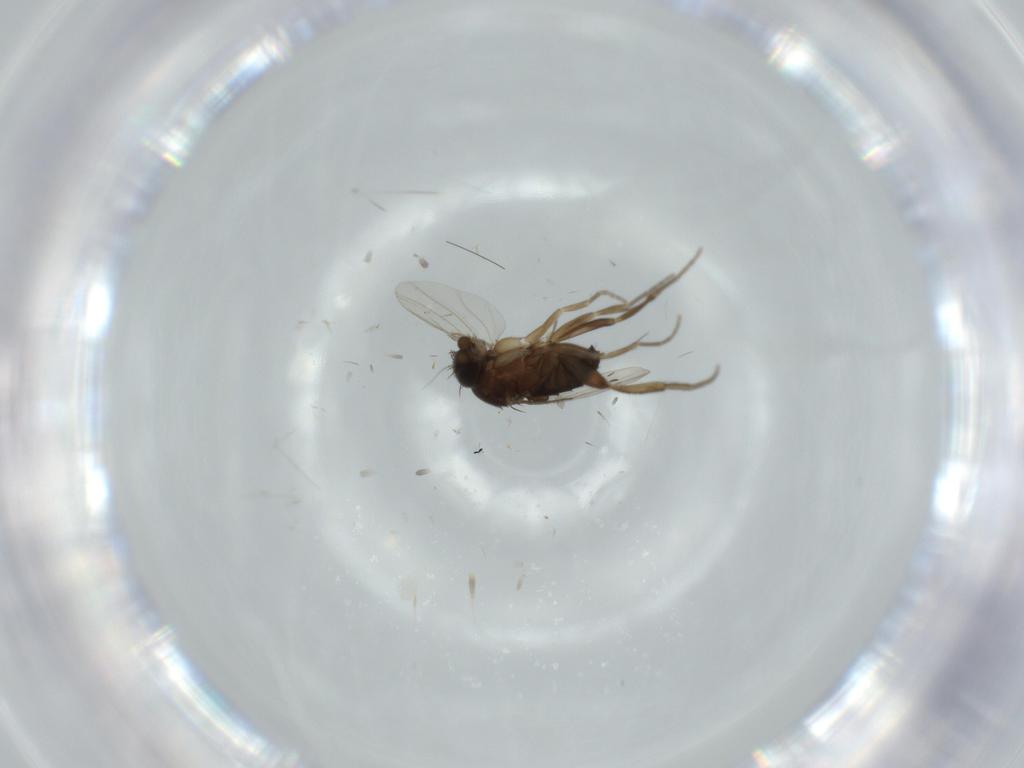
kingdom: Animalia
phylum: Arthropoda
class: Insecta
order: Diptera
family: Phoridae
